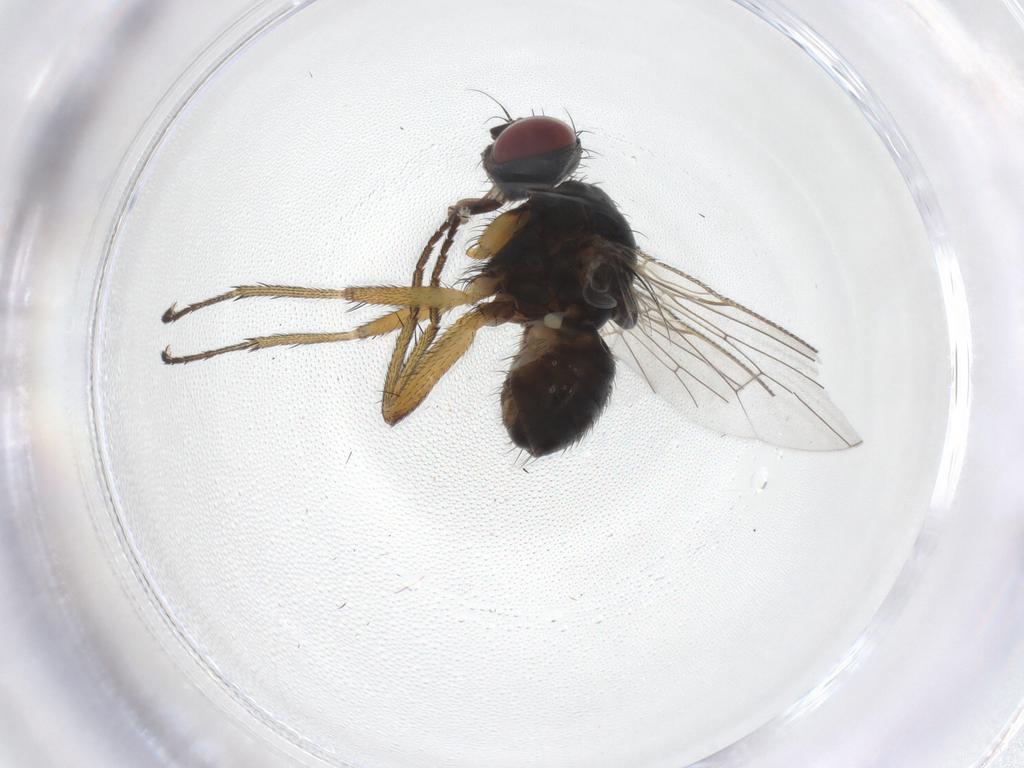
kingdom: Animalia
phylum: Arthropoda
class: Insecta
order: Diptera
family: Muscidae
